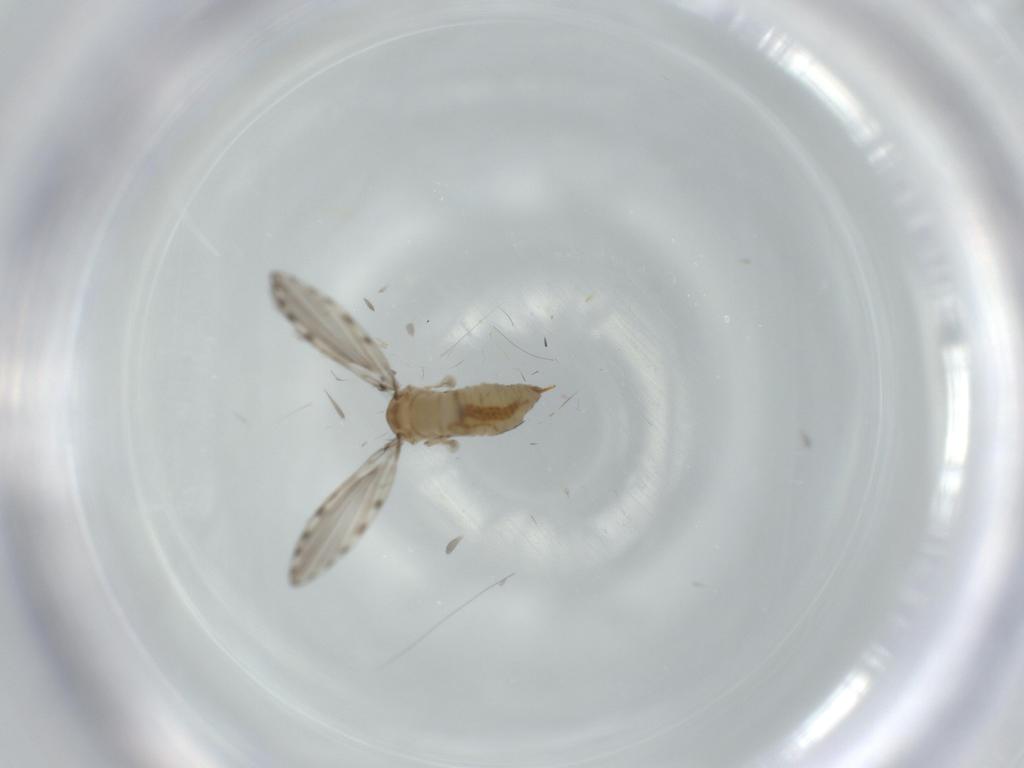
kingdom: Animalia
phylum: Arthropoda
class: Insecta
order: Diptera
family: Psychodidae
